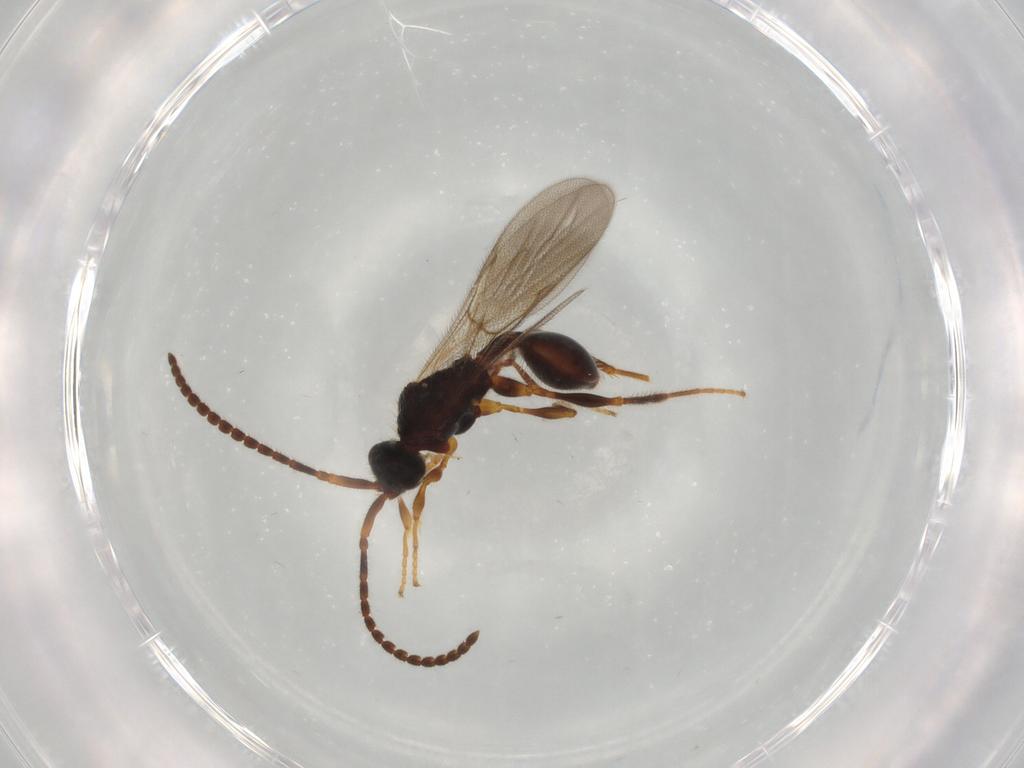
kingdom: Animalia
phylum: Arthropoda
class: Insecta
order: Hymenoptera
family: Diapriidae
